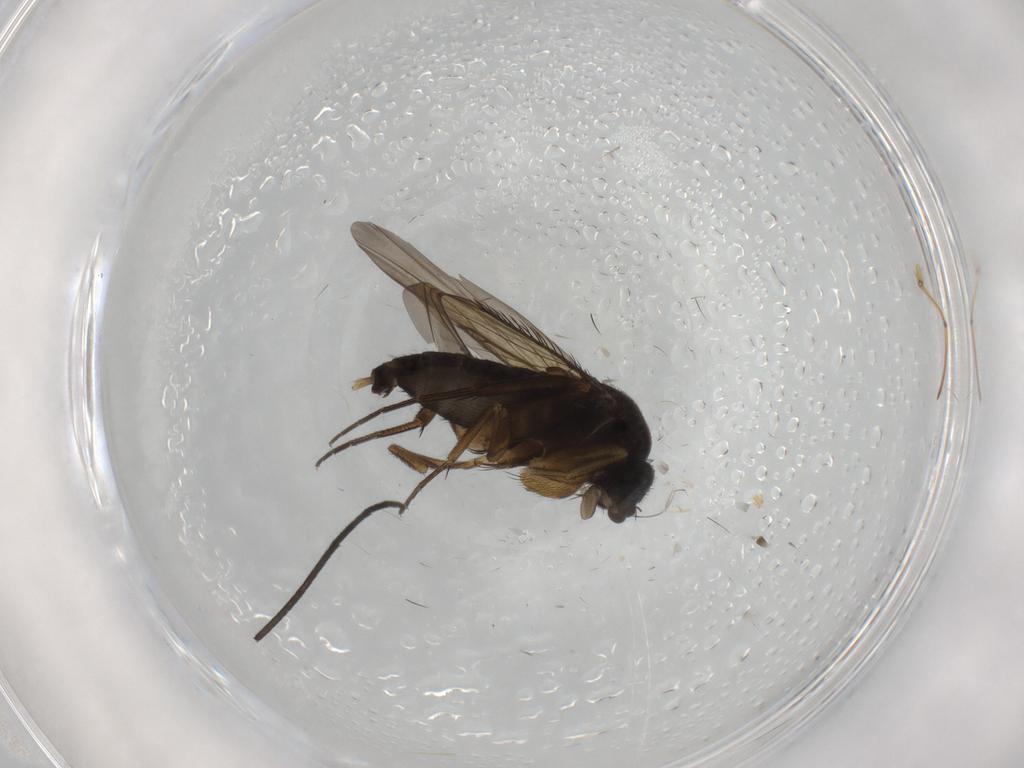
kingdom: Animalia
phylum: Arthropoda
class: Insecta
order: Diptera
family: Phoridae
